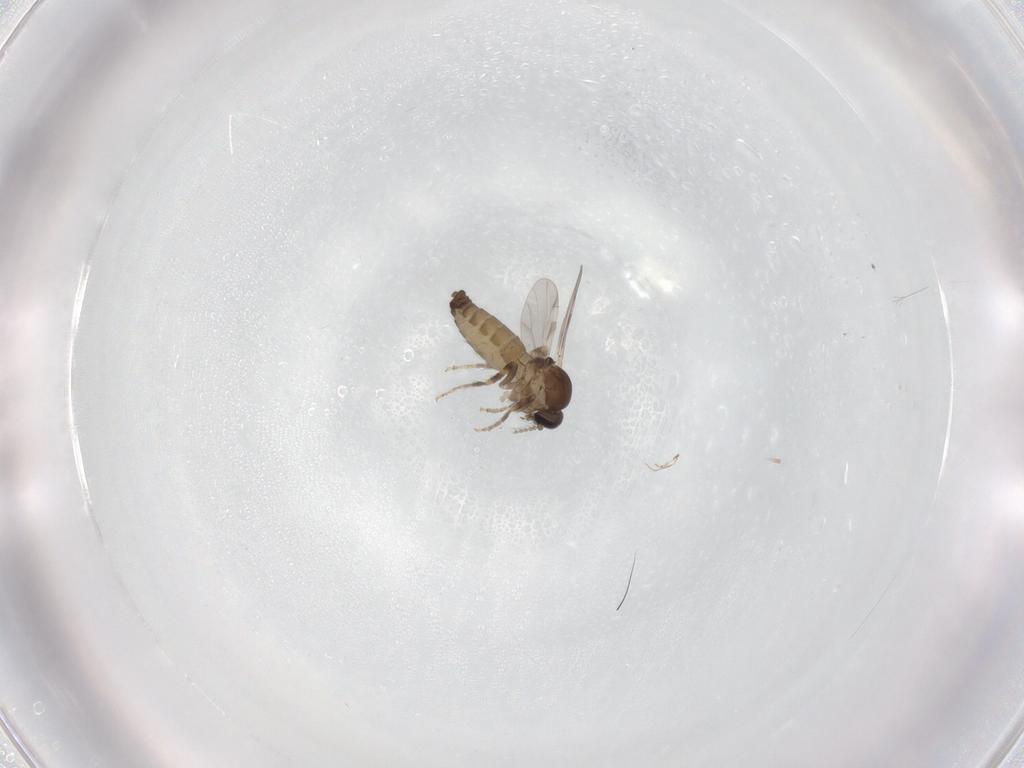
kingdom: Animalia
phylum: Arthropoda
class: Insecta
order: Diptera
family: Ceratopogonidae
